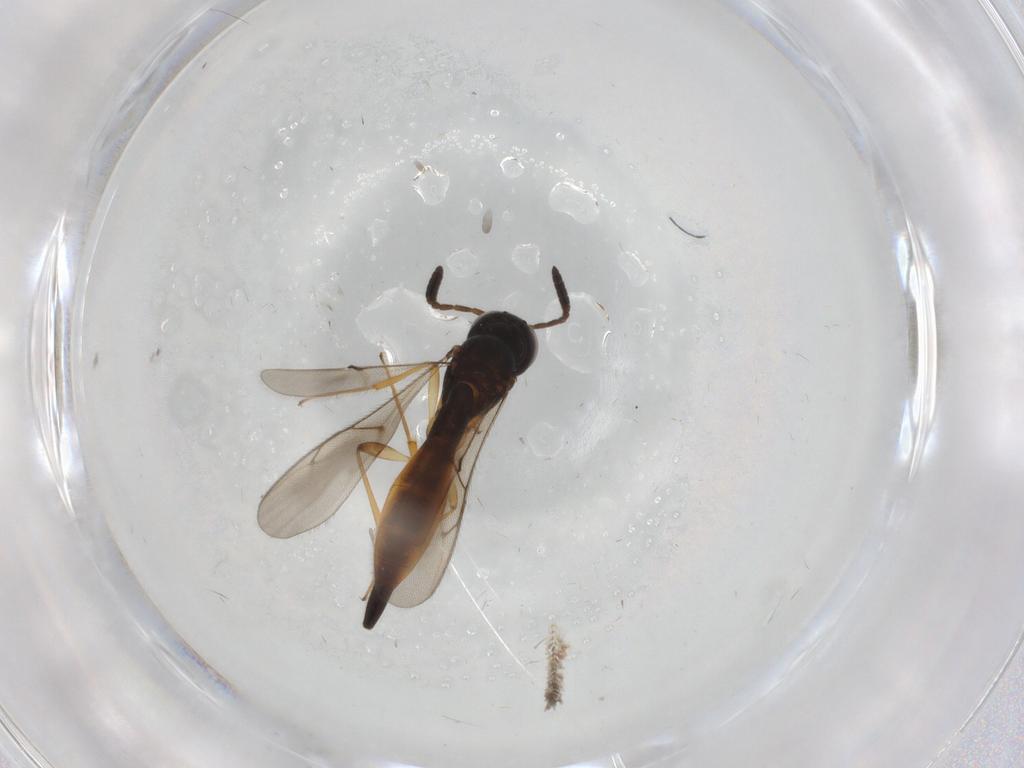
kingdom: Animalia
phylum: Arthropoda
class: Insecta
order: Hymenoptera
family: Scelionidae
